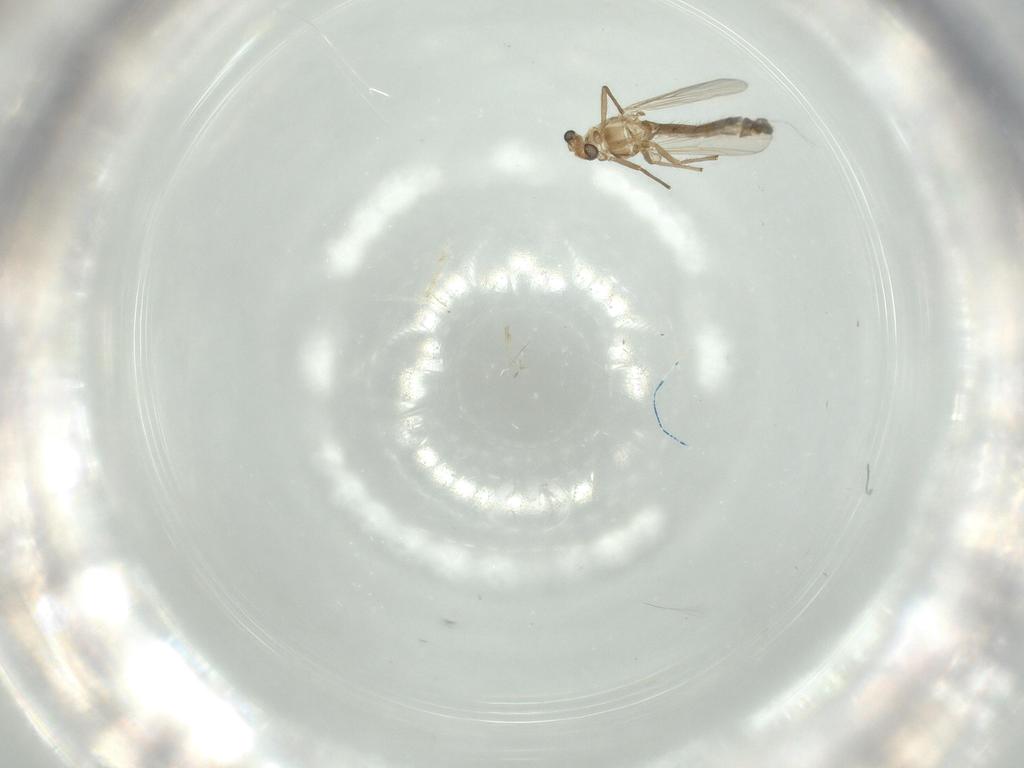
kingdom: Animalia
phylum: Arthropoda
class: Insecta
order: Diptera
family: Chironomidae
